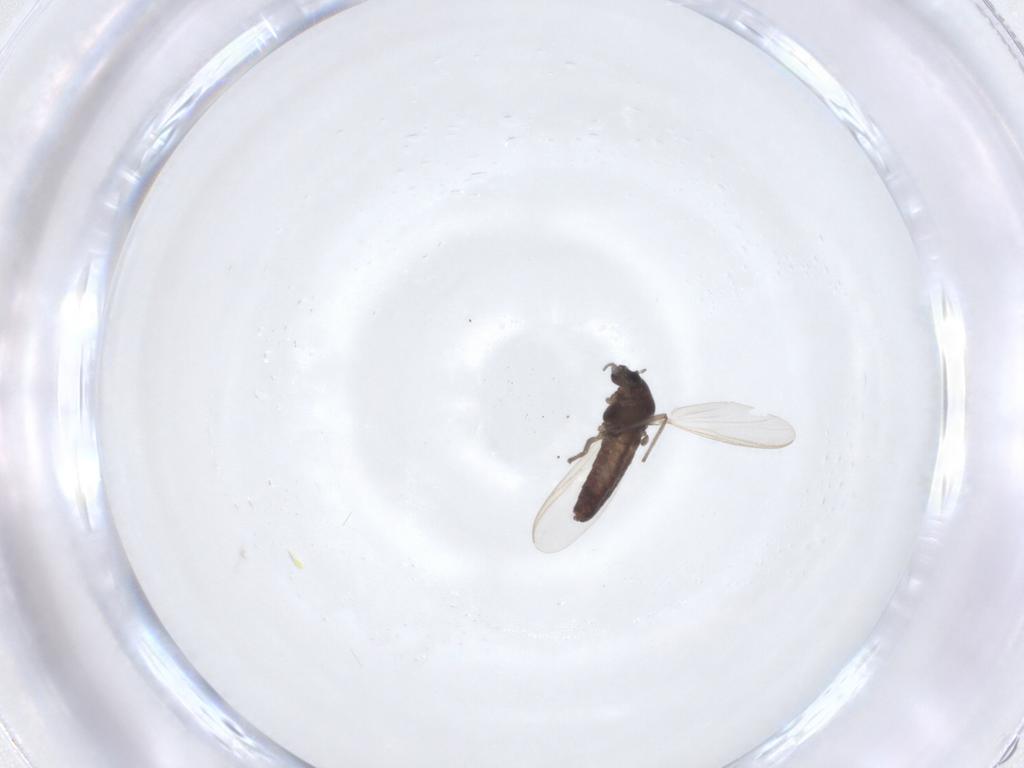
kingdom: Animalia
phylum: Arthropoda
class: Insecta
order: Diptera
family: Chironomidae
